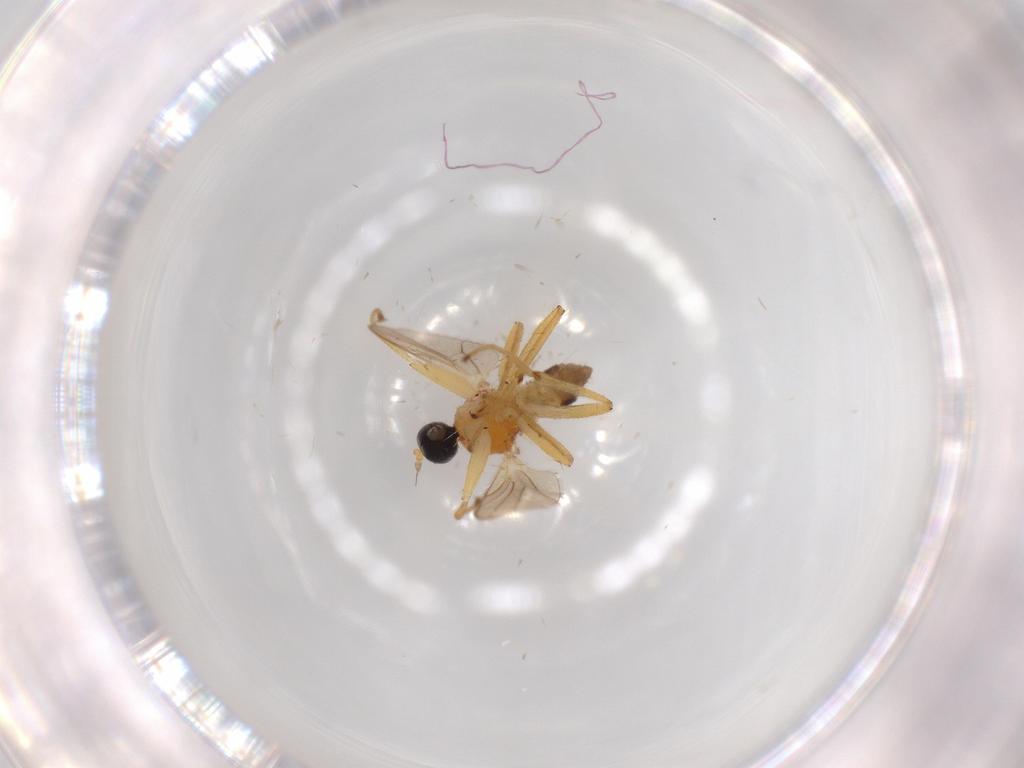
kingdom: Animalia
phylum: Arthropoda
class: Insecta
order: Diptera
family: Hybotidae
